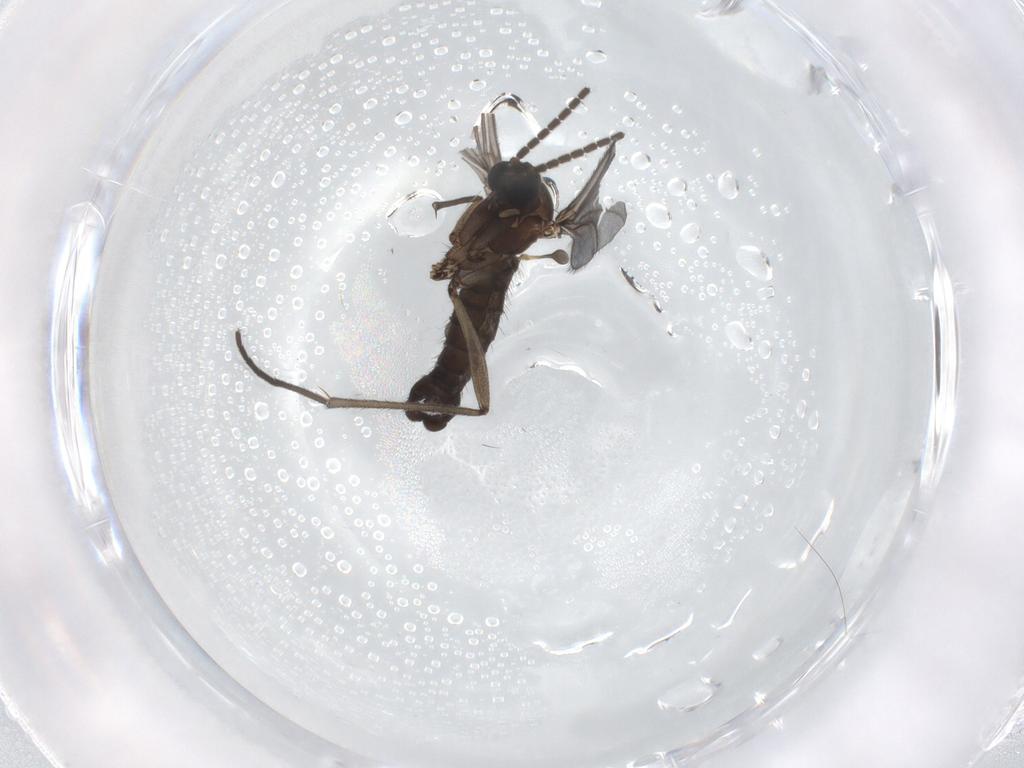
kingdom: Animalia
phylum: Arthropoda
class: Insecta
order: Diptera
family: Sciaridae
